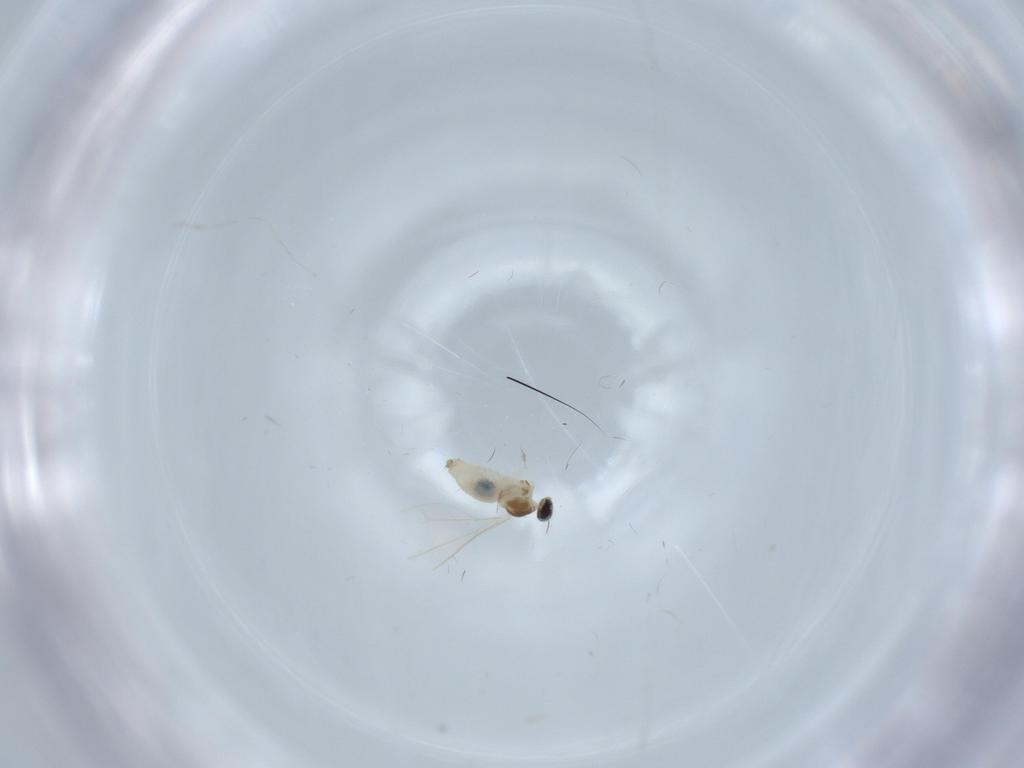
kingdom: Animalia
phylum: Arthropoda
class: Insecta
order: Diptera
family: Cecidomyiidae
